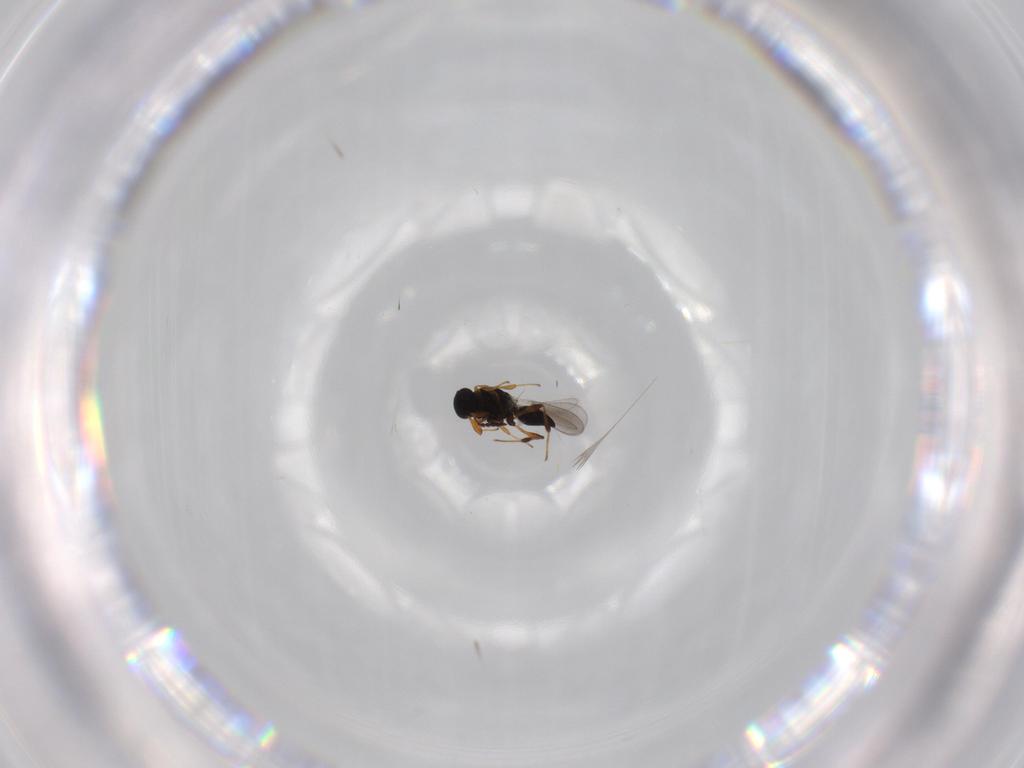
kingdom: Animalia
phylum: Arthropoda
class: Insecta
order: Hymenoptera
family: Platygastridae
